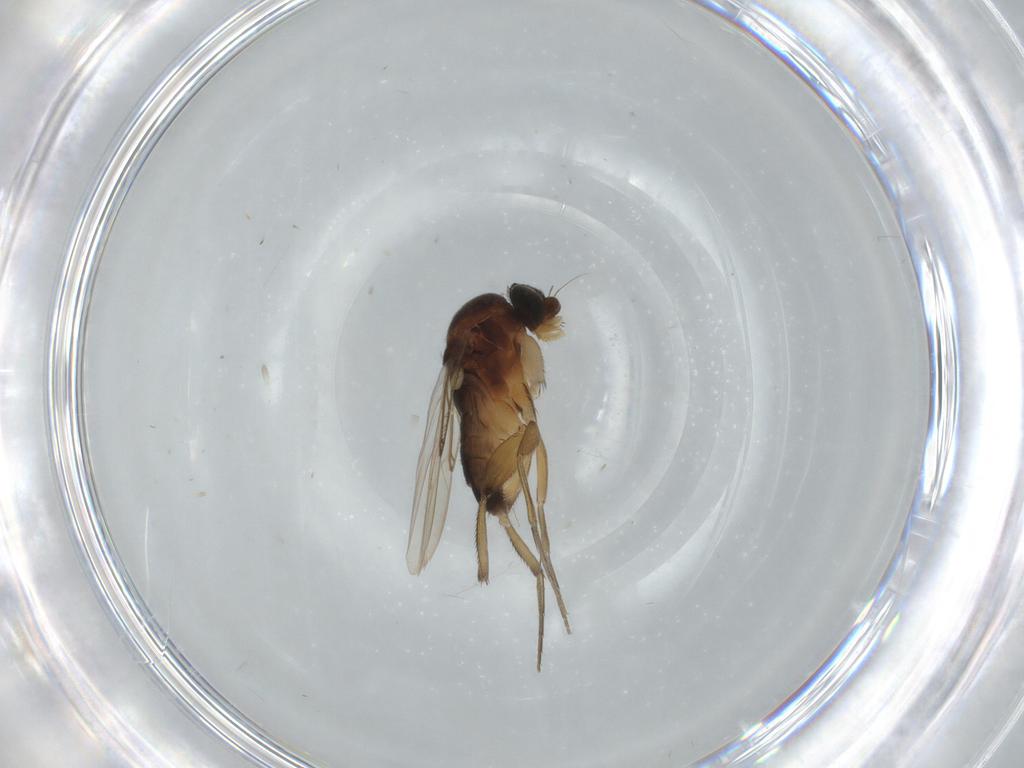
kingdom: Animalia
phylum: Arthropoda
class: Insecta
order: Diptera
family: Phoridae
